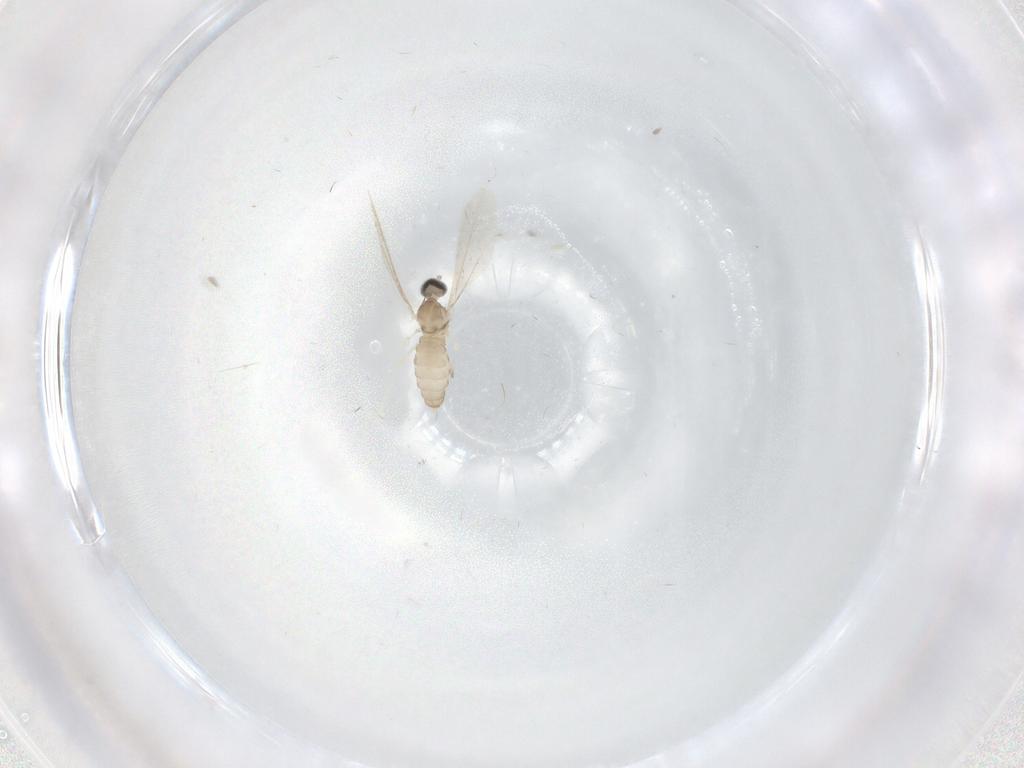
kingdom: Animalia
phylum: Arthropoda
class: Insecta
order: Diptera
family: Cecidomyiidae
